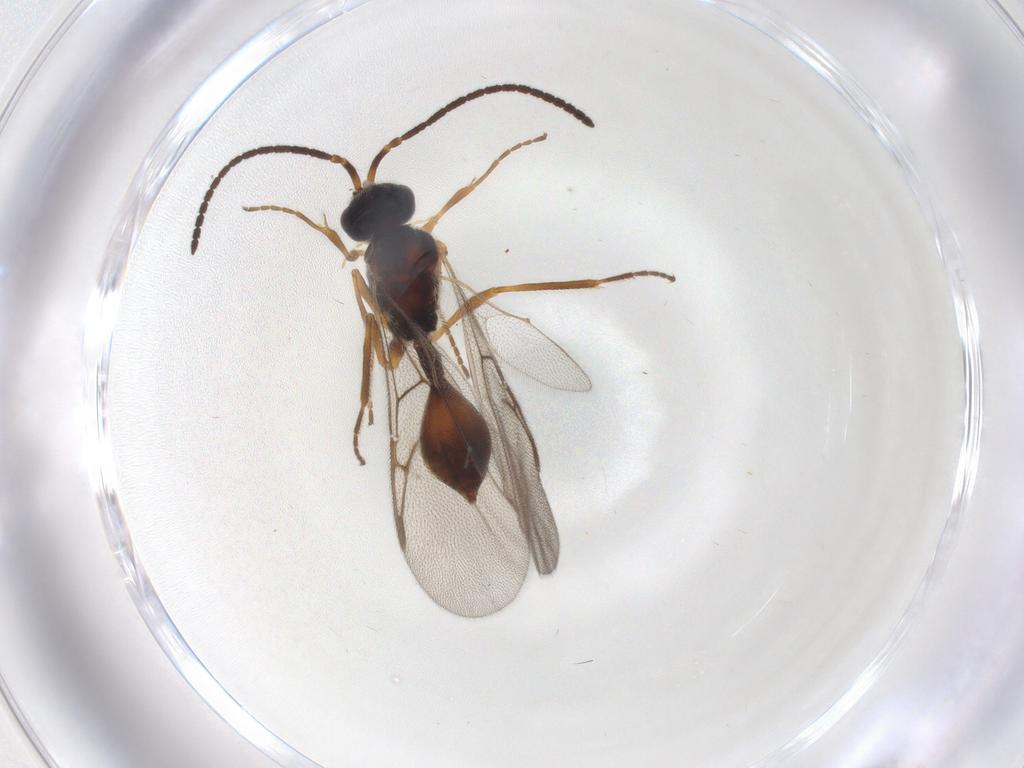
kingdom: Animalia
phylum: Arthropoda
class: Insecta
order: Hymenoptera
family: Diapriidae
